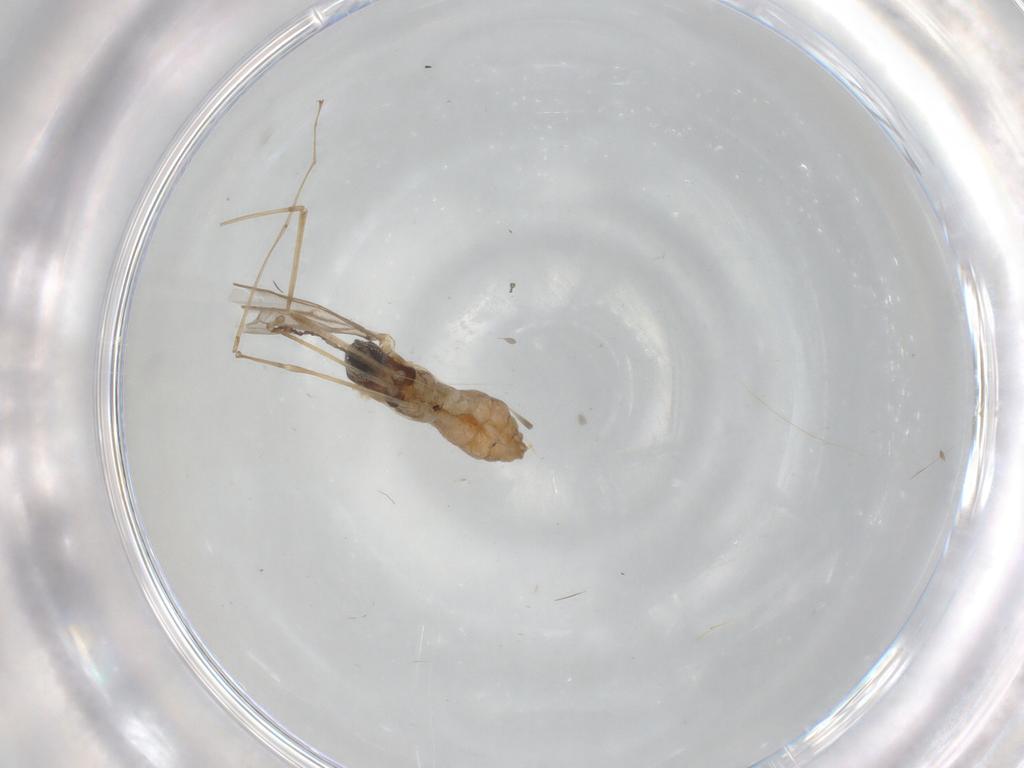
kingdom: Animalia
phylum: Arthropoda
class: Insecta
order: Diptera
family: Cecidomyiidae
